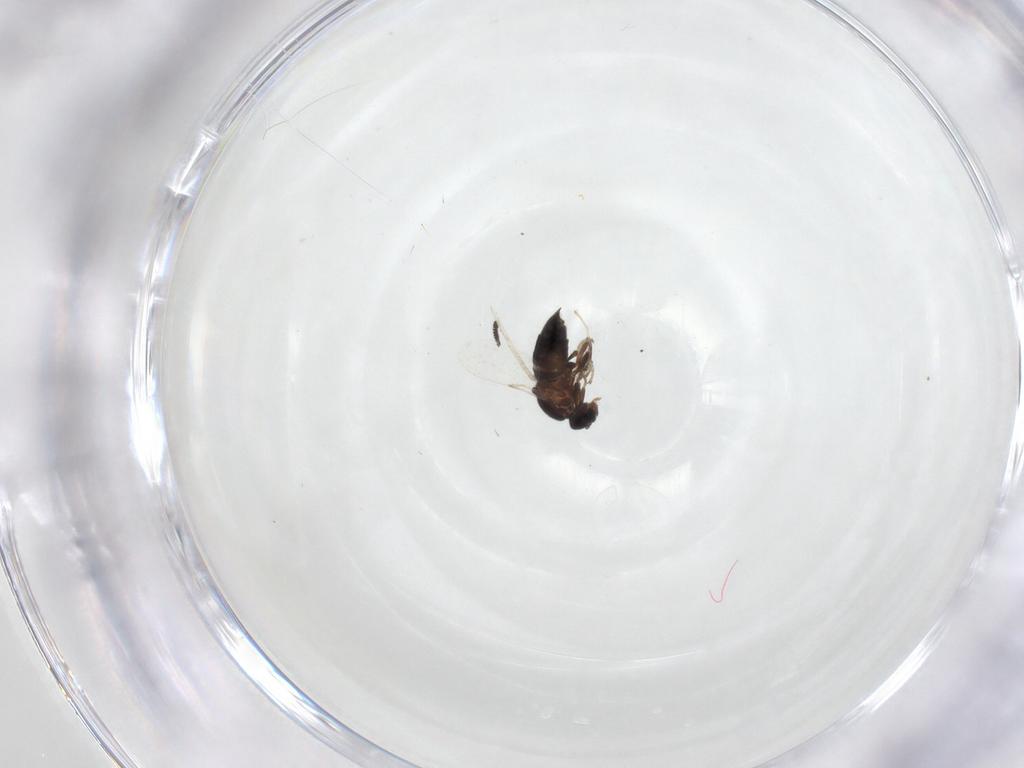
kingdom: Animalia
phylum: Arthropoda
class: Insecta
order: Diptera
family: Scatopsidae
